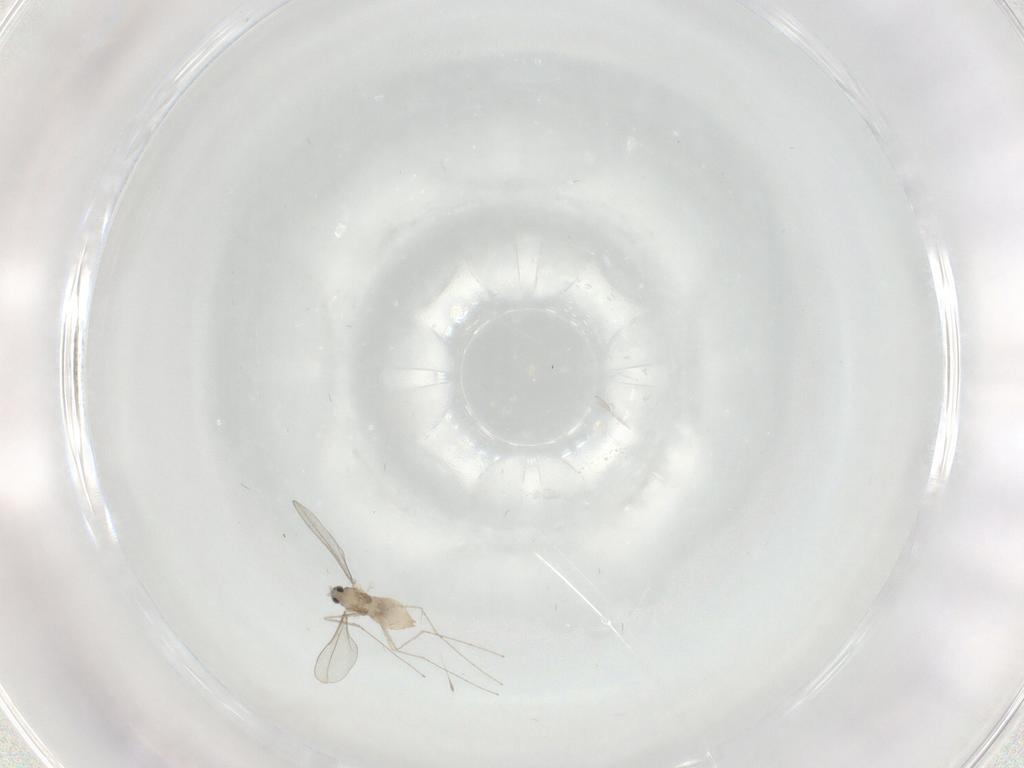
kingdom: Animalia
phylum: Arthropoda
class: Insecta
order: Diptera
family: Cecidomyiidae
